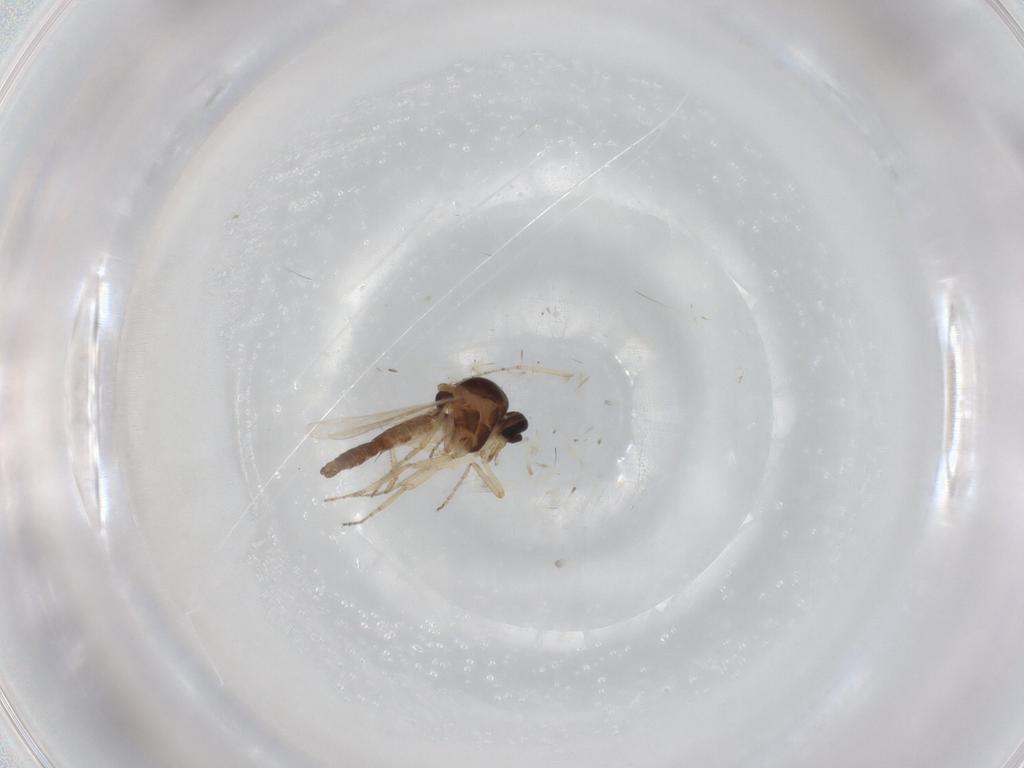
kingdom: Animalia
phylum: Arthropoda
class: Insecta
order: Diptera
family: Ceratopogonidae
